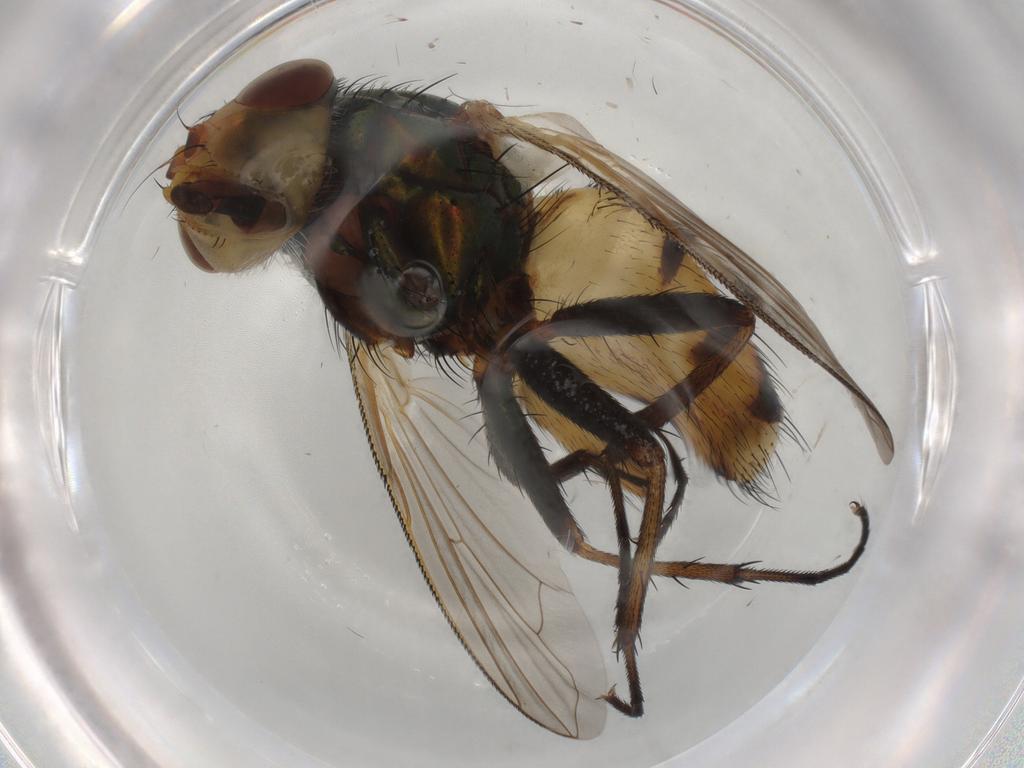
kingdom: Animalia
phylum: Arthropoda
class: Insecta
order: Diptera
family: Calliphoridae
